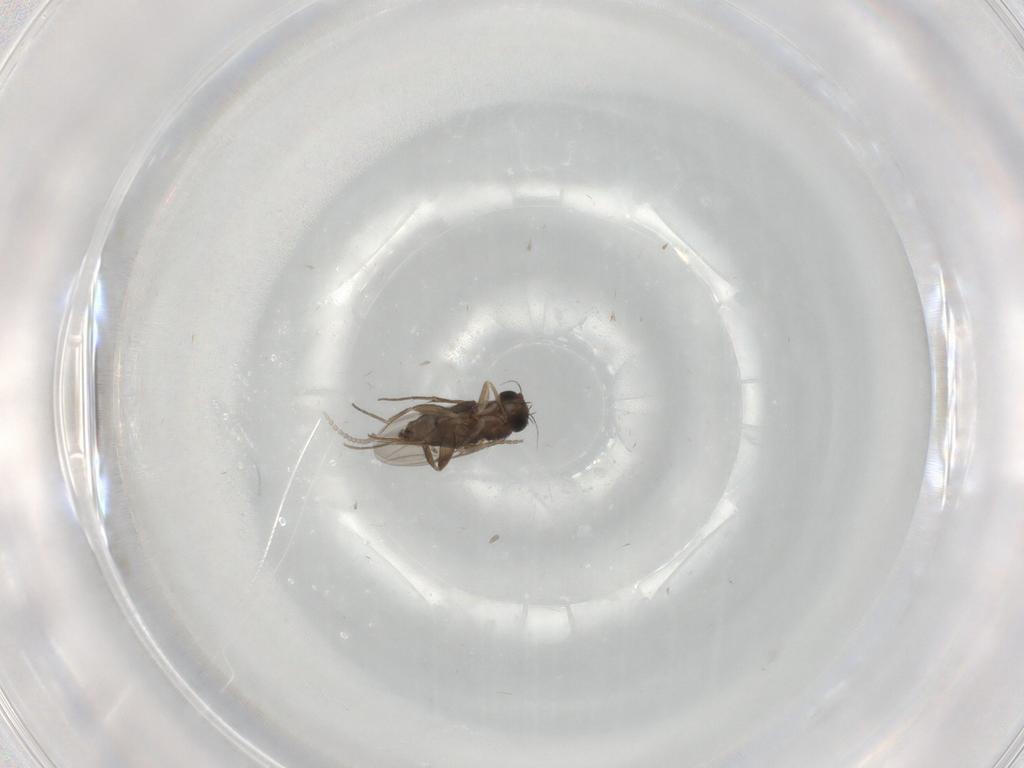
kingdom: Animalia
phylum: Arthropoda
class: Insecta
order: Diptera
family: Phoridae
